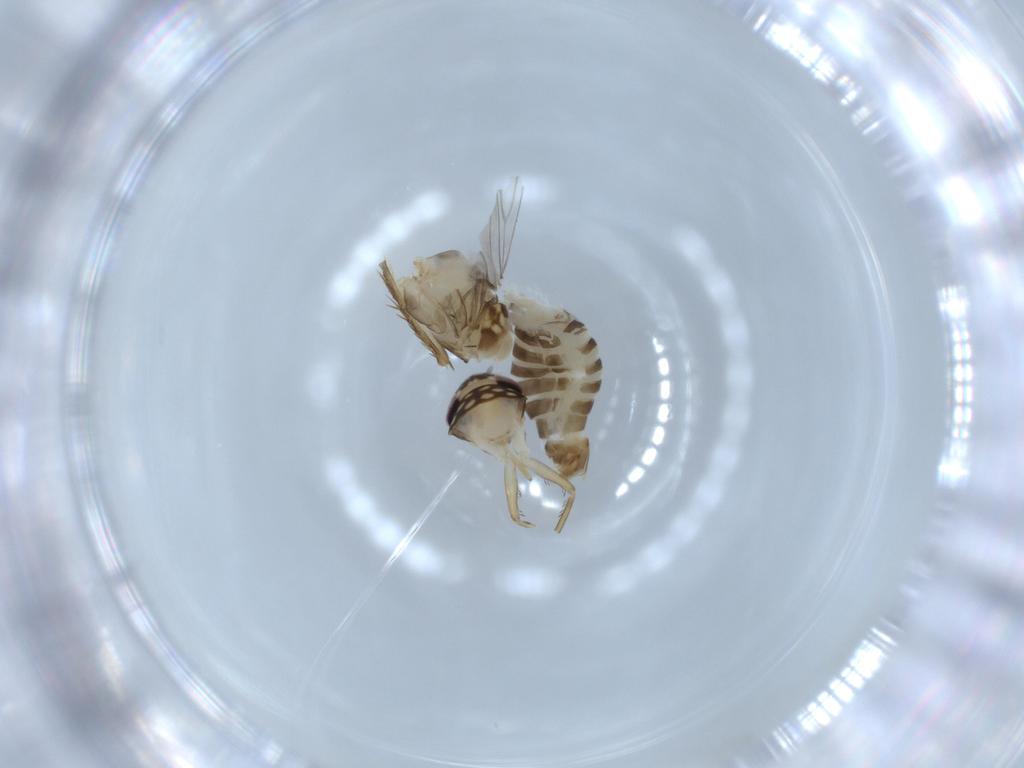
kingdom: Animalia
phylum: Arthropoda
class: Insecta
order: Hemiptera
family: Cicadellidae
